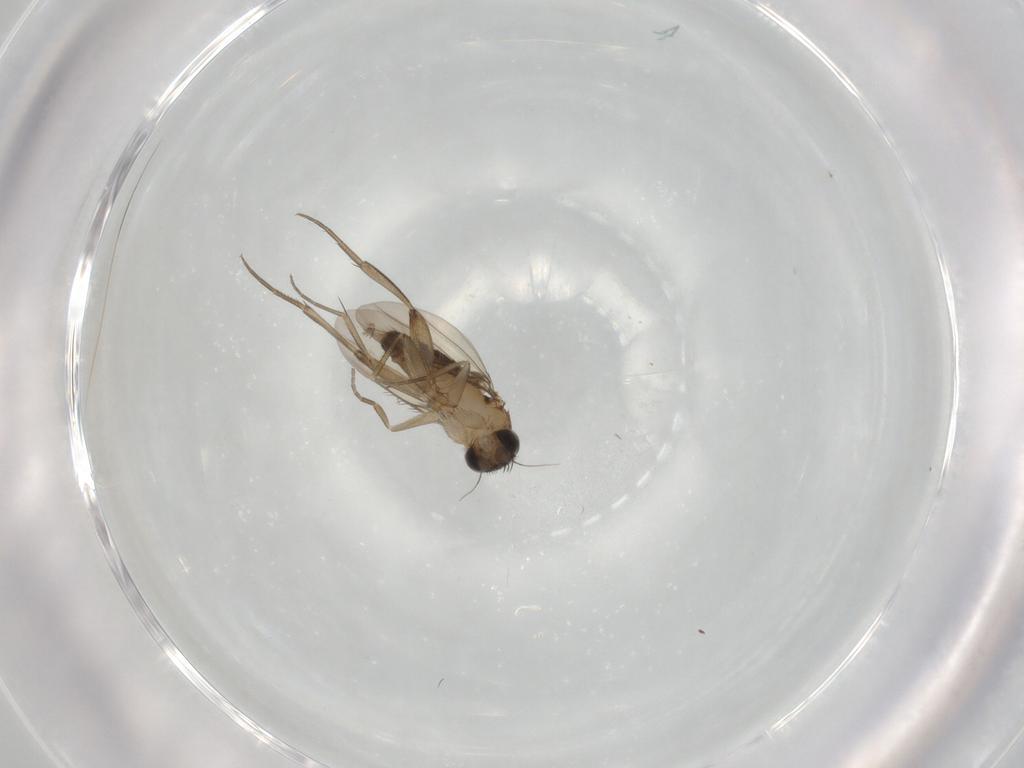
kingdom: Animalia
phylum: Arthropoda
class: Insecta
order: Diptera
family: Phoridae
